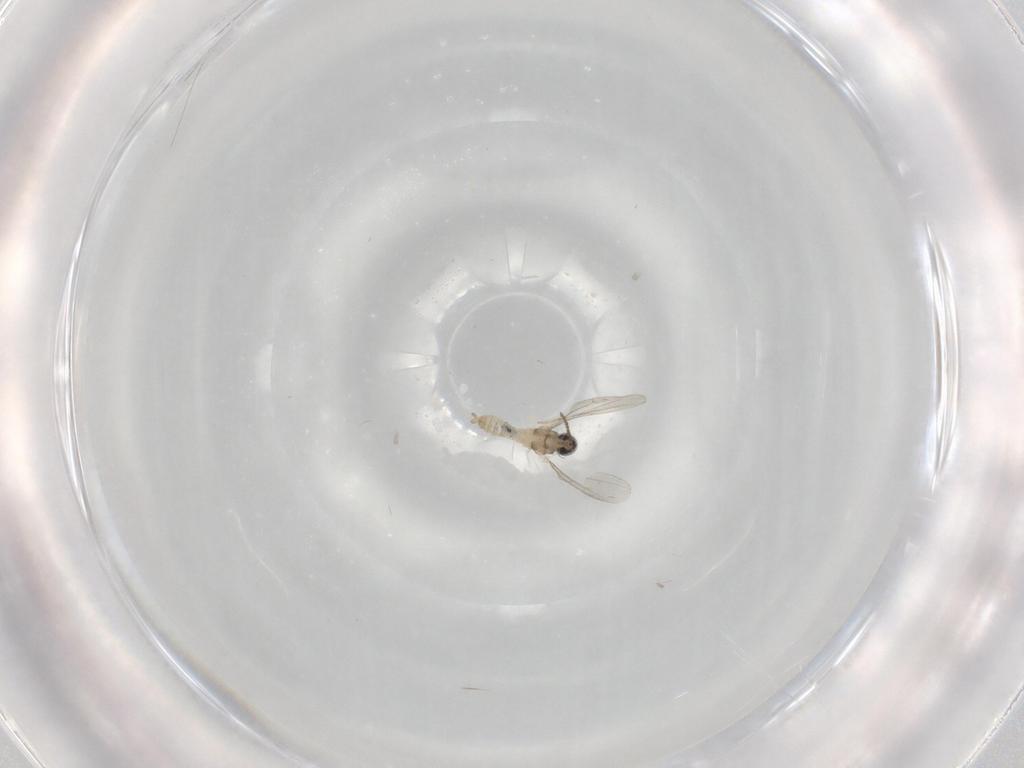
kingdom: Animalia
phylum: Arthropoda
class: Insecta
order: Diptera
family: Cecidomyiidae
